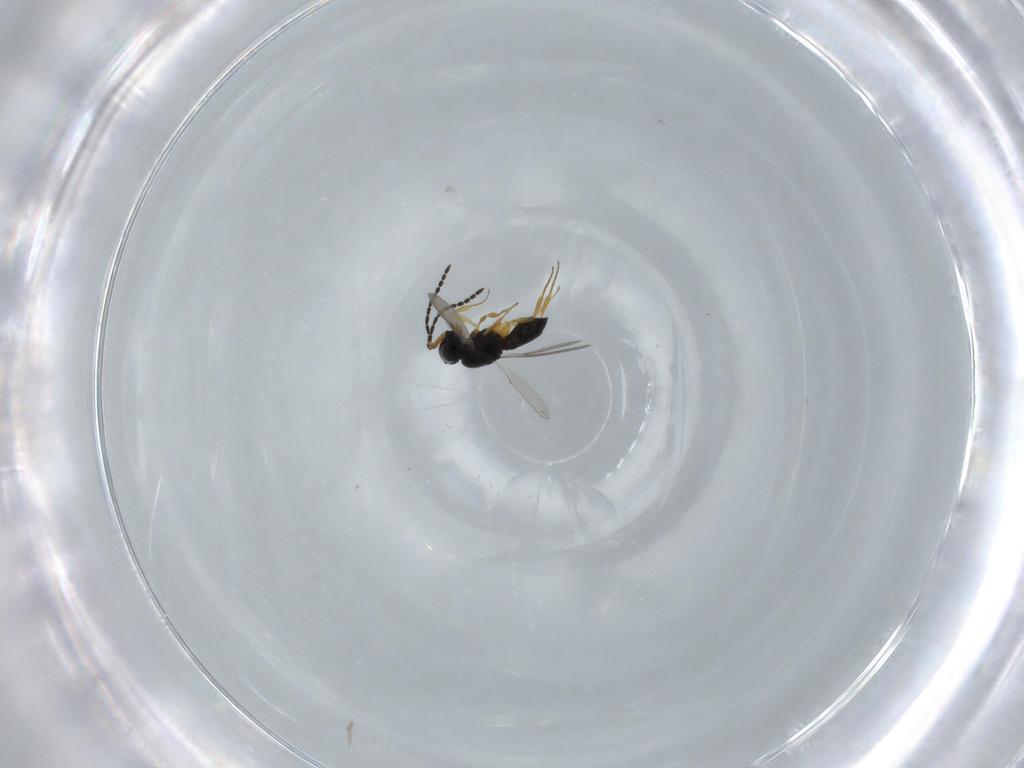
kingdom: Animalia
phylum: Arthropoda
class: Insecta
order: Hymenoptera
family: Scelionidae
